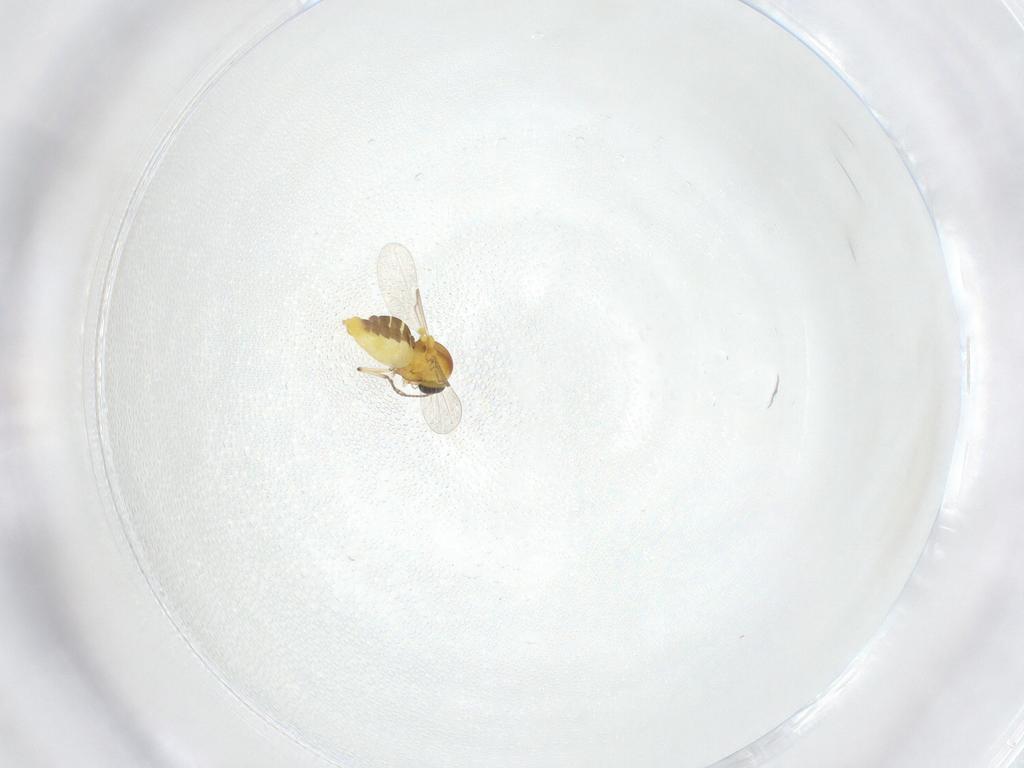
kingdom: Animalia
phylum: Arthropoda
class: Insecta
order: Diptera
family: Ceratopogonidae
